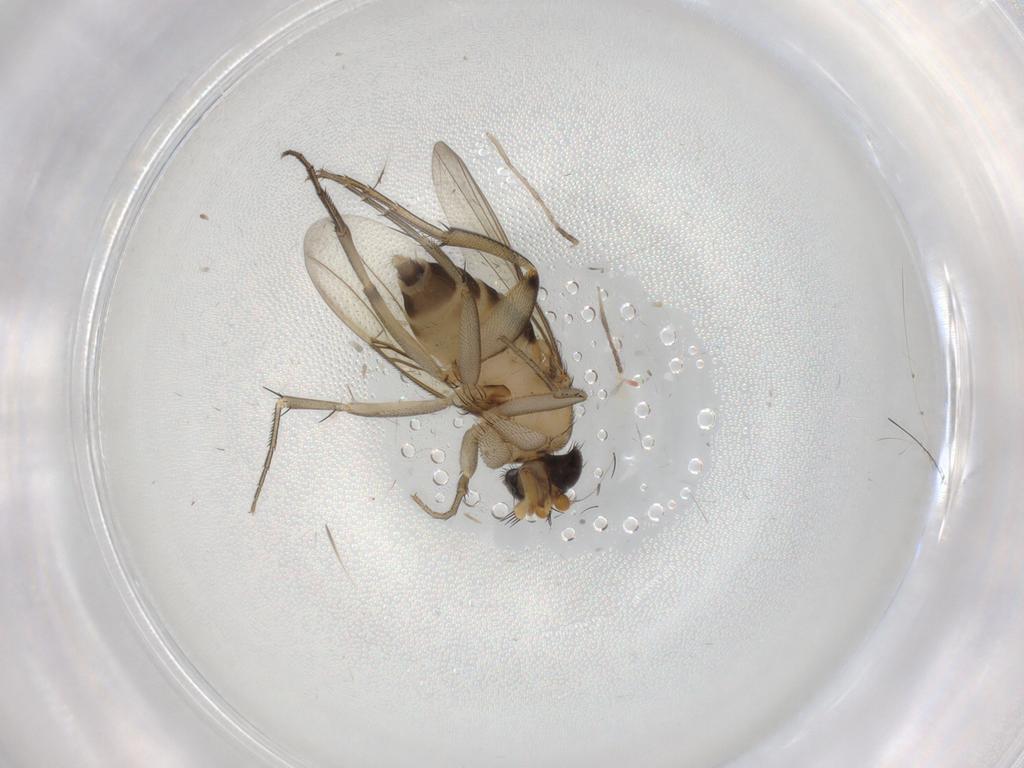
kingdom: Animalia
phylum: Arthropoda
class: Insecta
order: Diptera
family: Phoridae
